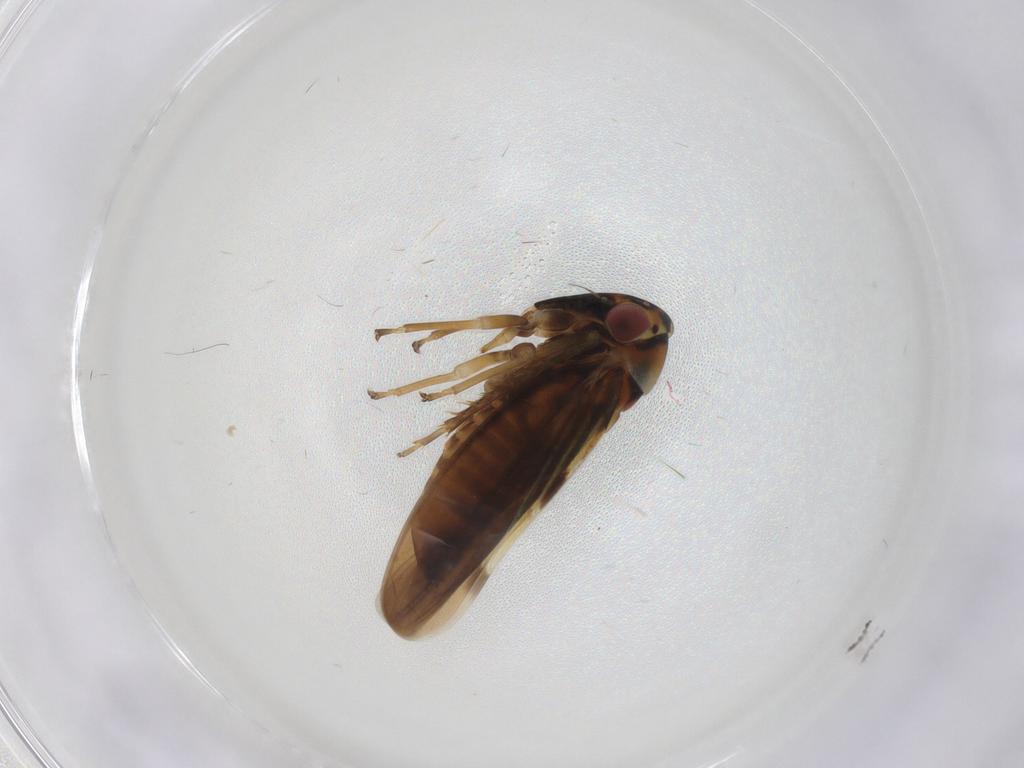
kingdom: Animalia
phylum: Arthropoda
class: Insecta
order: Hemiptera
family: Cicadellidae
